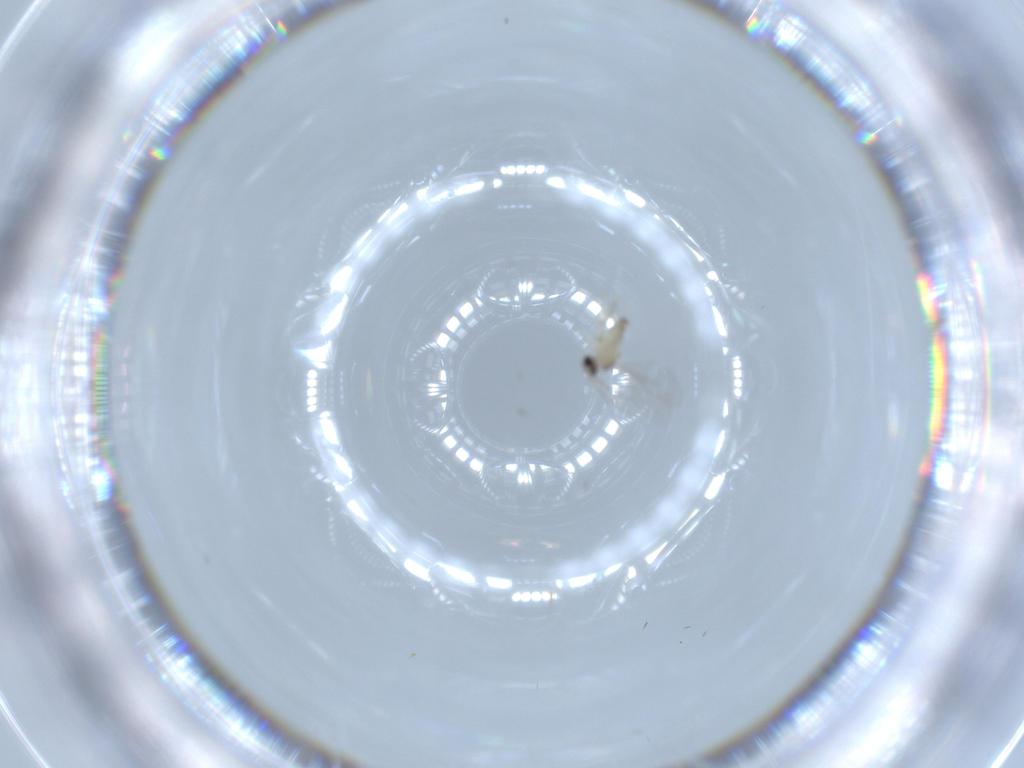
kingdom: Animalia
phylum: Arthropoda
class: Insecta
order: Diptera
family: Cecidomyiidae
